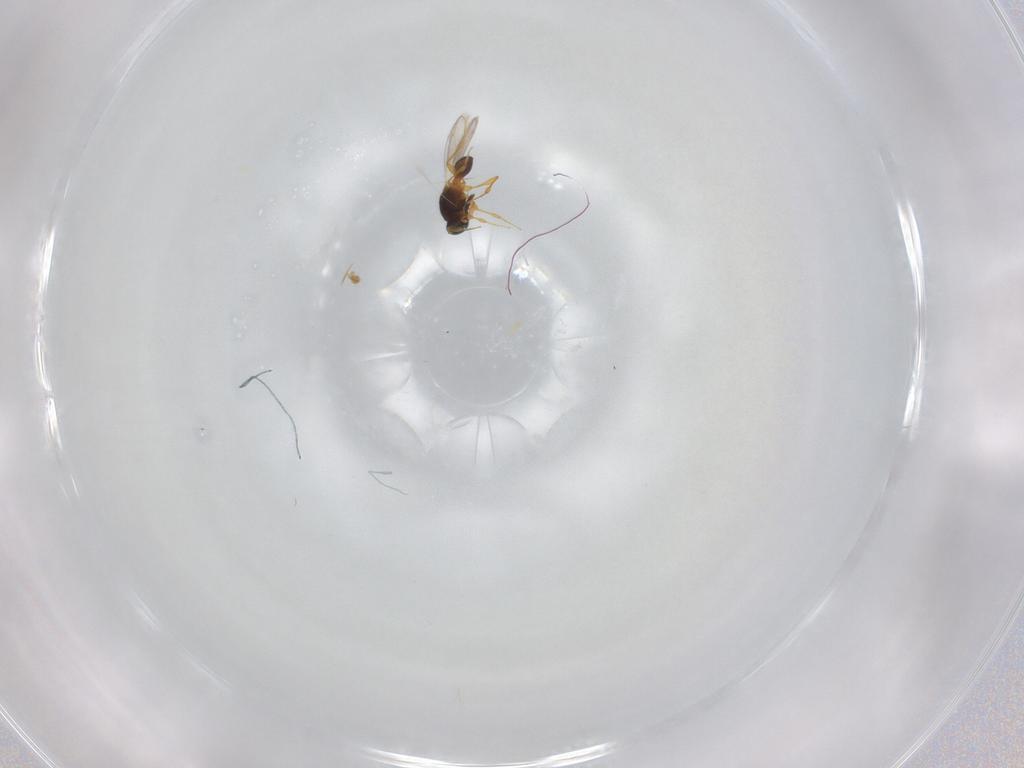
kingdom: Animalia
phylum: Arthropoda
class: Insecta
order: Hymenoptera
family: Platygastridae
